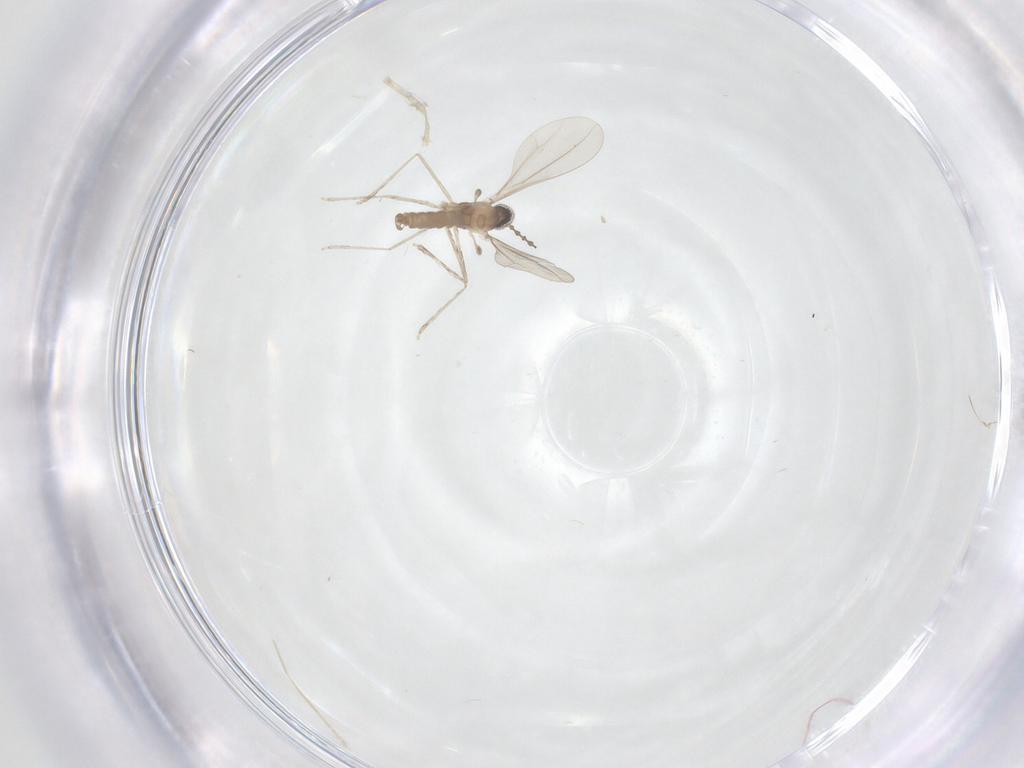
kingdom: Animalia
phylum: Arthropoda
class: Insecta
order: Diptera
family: Cecidomyiidae
